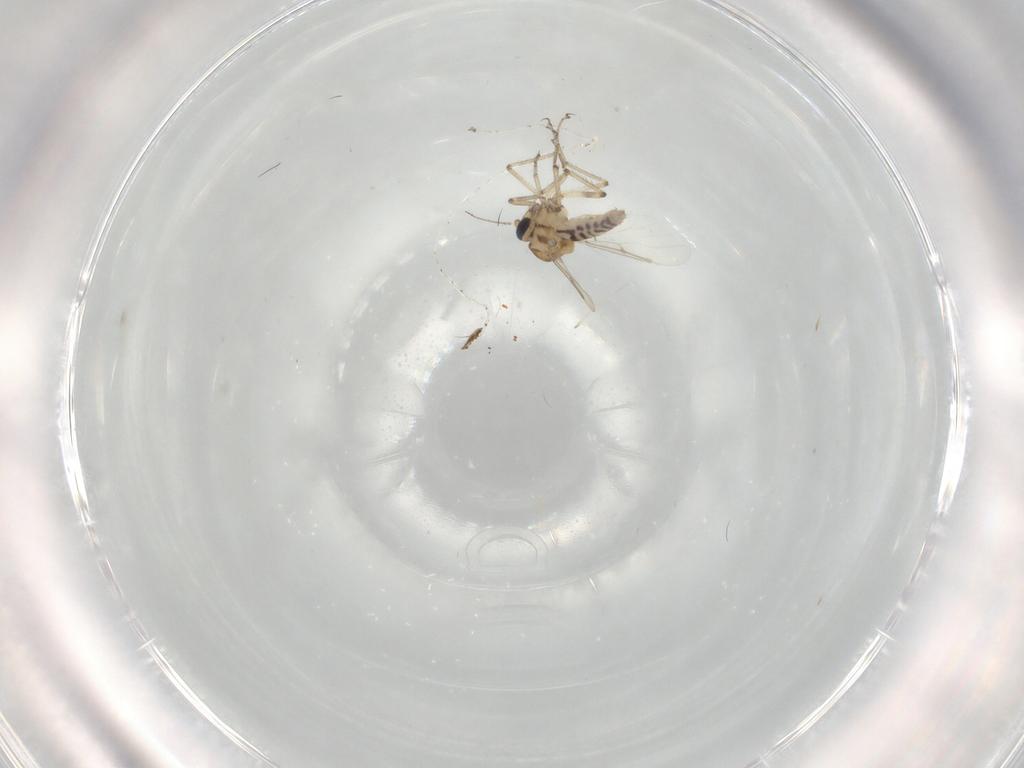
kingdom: Animalia
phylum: Arthropoda
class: Insecta
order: Diptera
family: Ceratopogonidae
